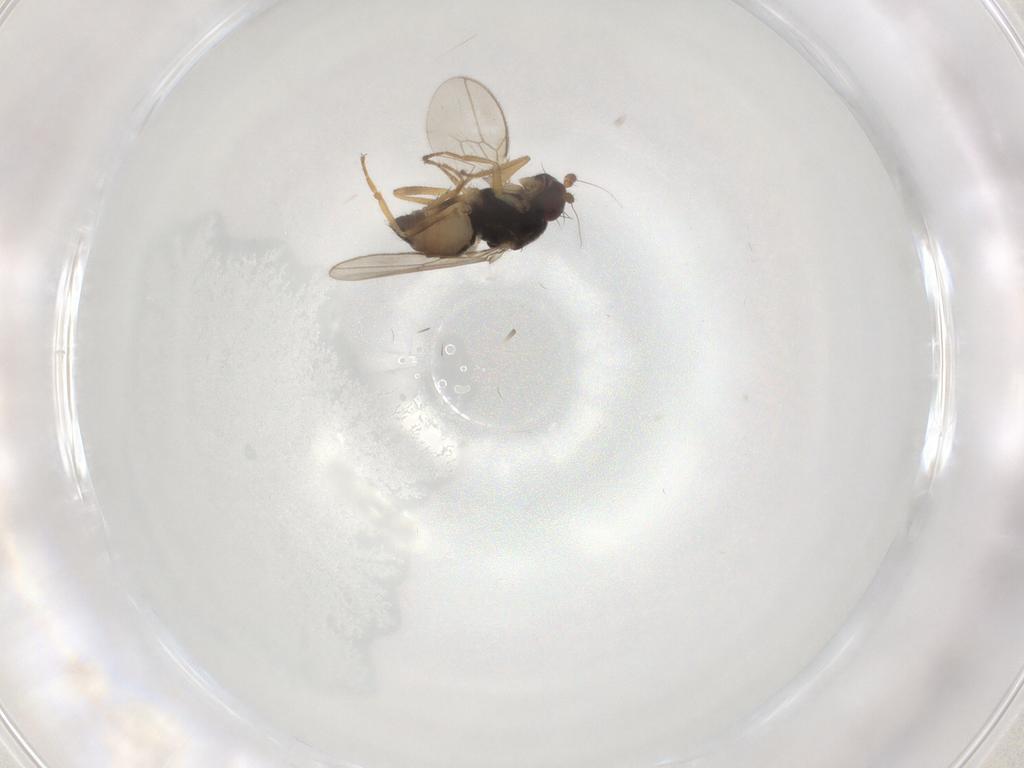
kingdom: Animalia
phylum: Arthropoda
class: Insecta
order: Diptera
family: Sphaeroceridae
